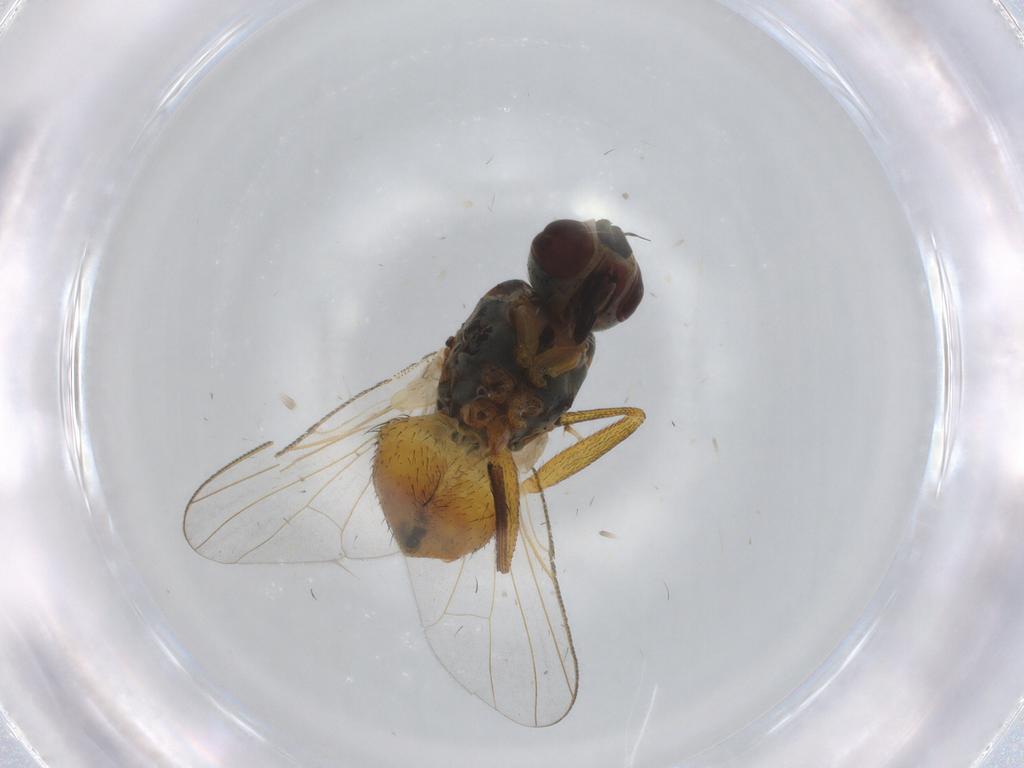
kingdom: Animalia
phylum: Arthropoda
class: Insecta
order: Diptera
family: Muscidae
